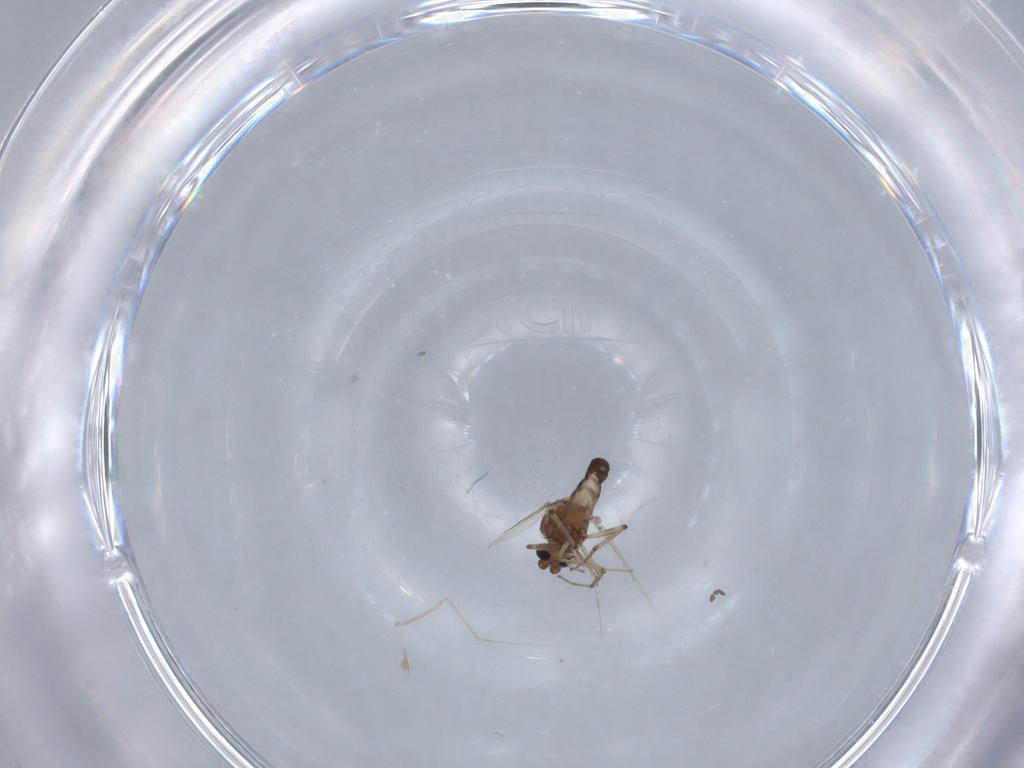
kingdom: Animalia
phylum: Arthropoda
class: Insecta
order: Diptera
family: Ceratopogonidae
